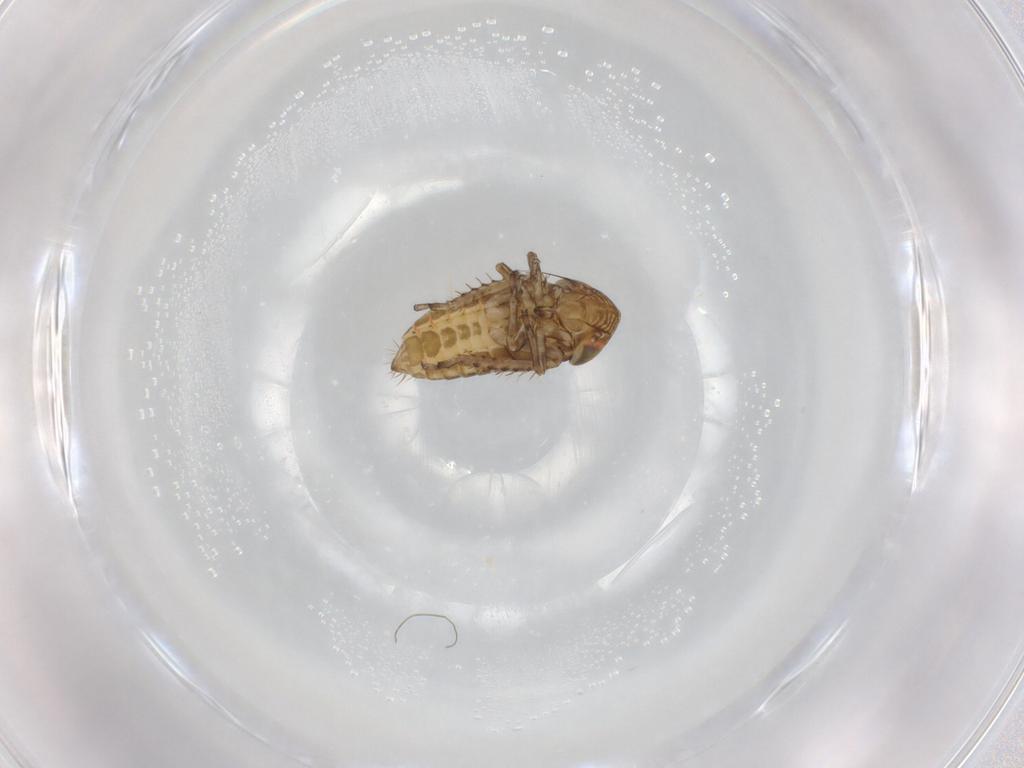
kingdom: Animalia
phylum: Arthropoda
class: Insecta
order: Hemiptera
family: Cicadellidae
